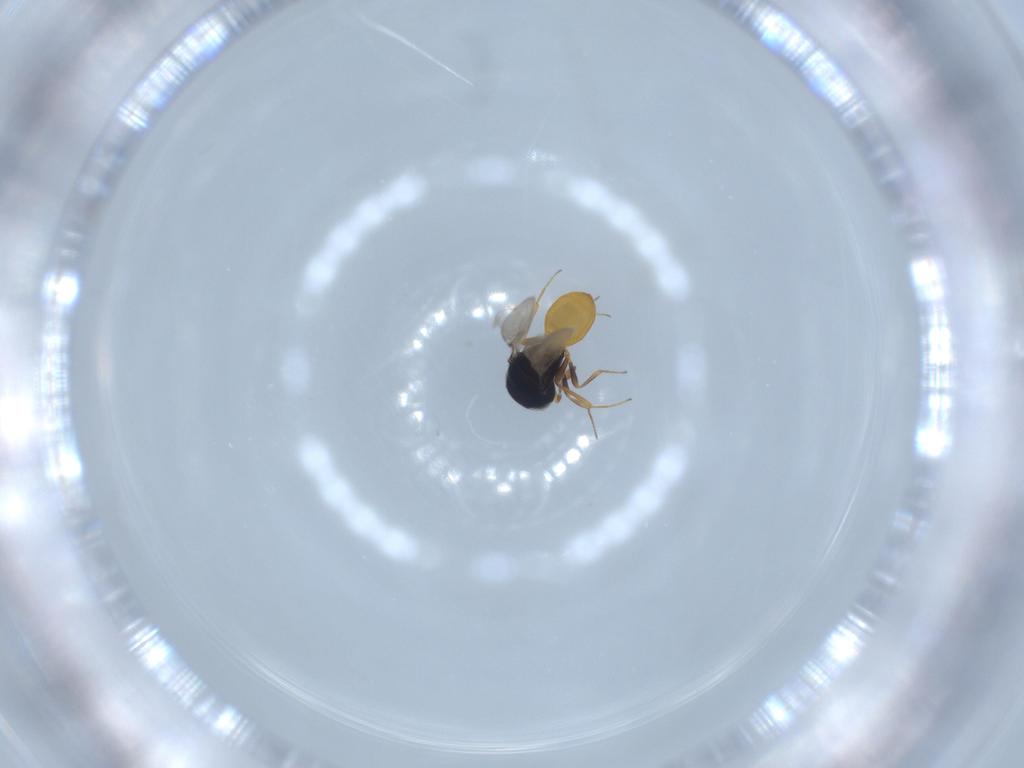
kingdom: Animalia
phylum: Arthropoda
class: Insecta
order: Hymenoptera
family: Scelionidae
